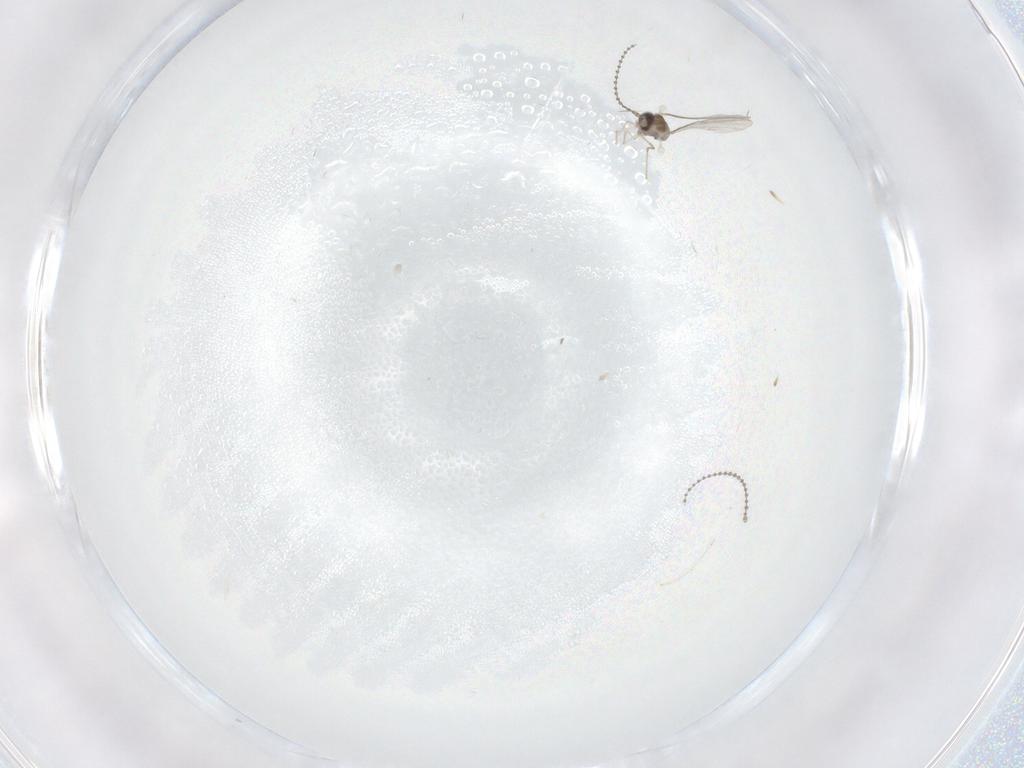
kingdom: Animalia
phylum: Arthropoda
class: Insecta
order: Diptera
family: Cecidomyiidae
